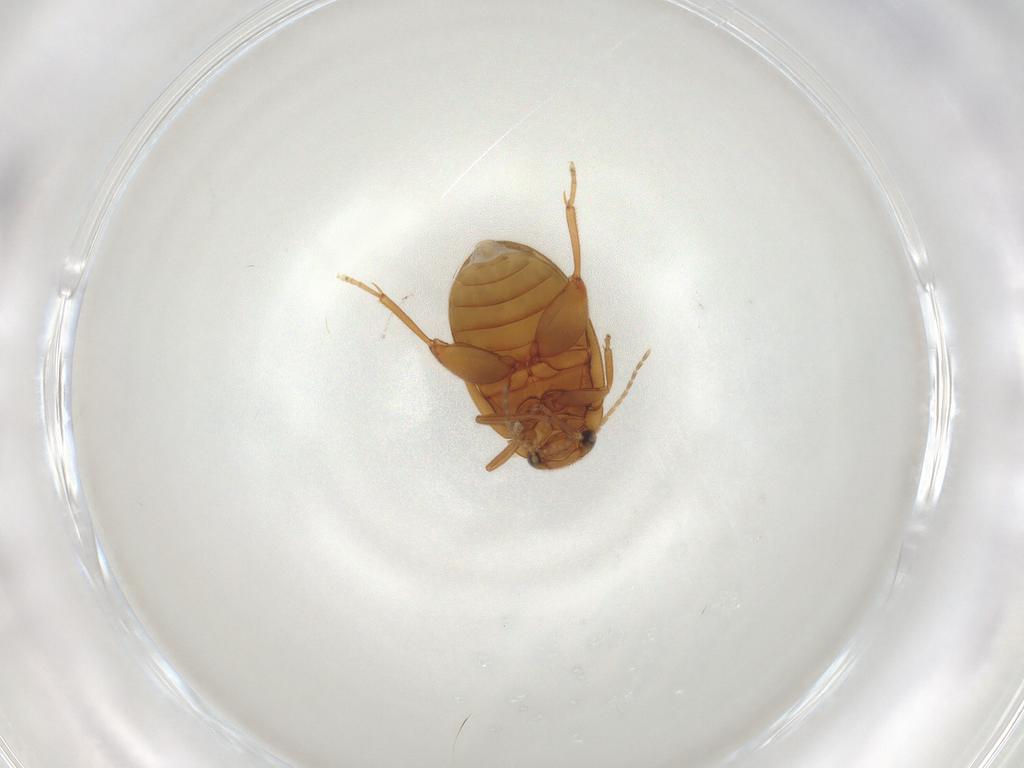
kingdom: Animalia
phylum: Arthropoda
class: Insecta
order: Coleoptera
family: Scirtidae
